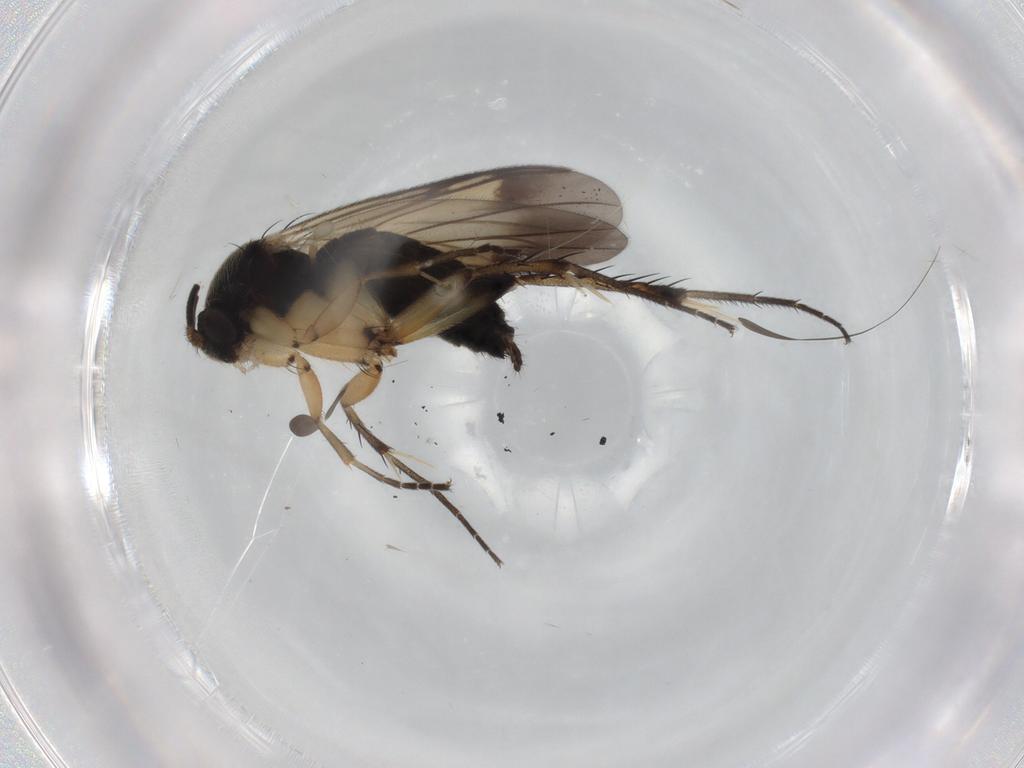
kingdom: Animalia
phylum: Arthropoda
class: Insecta
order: Diptera
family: Mycetophilidae
